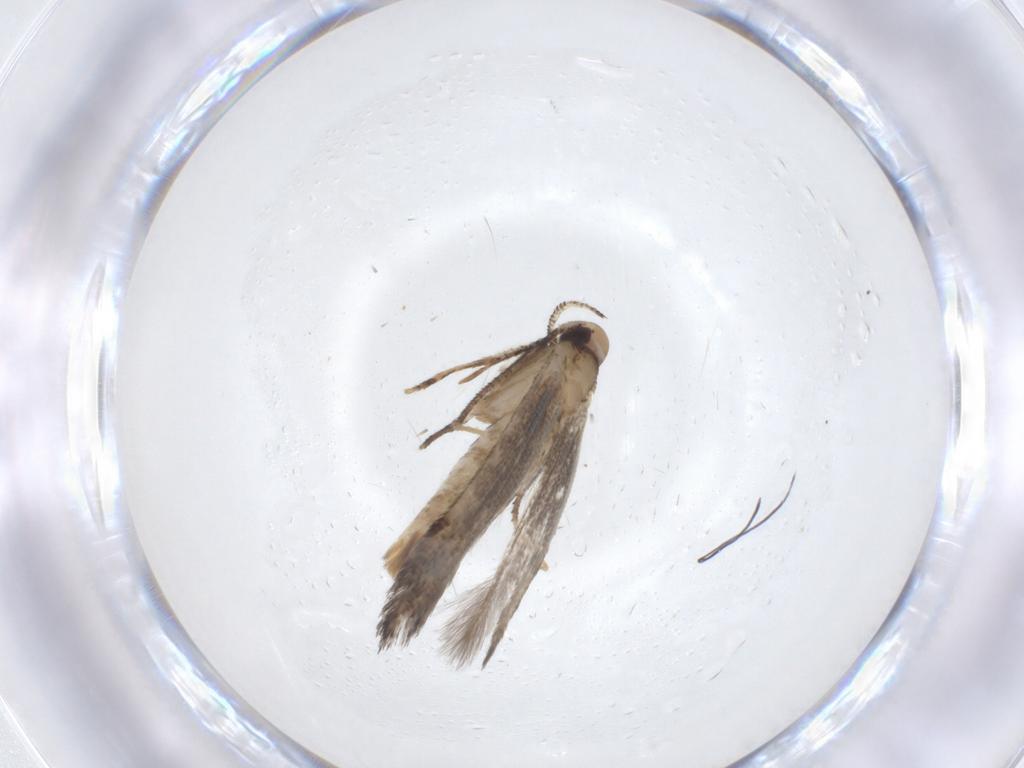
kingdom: Animalia
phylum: Arthropoda
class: Insecta
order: Lepidoptera
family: Cosmopterigidae
